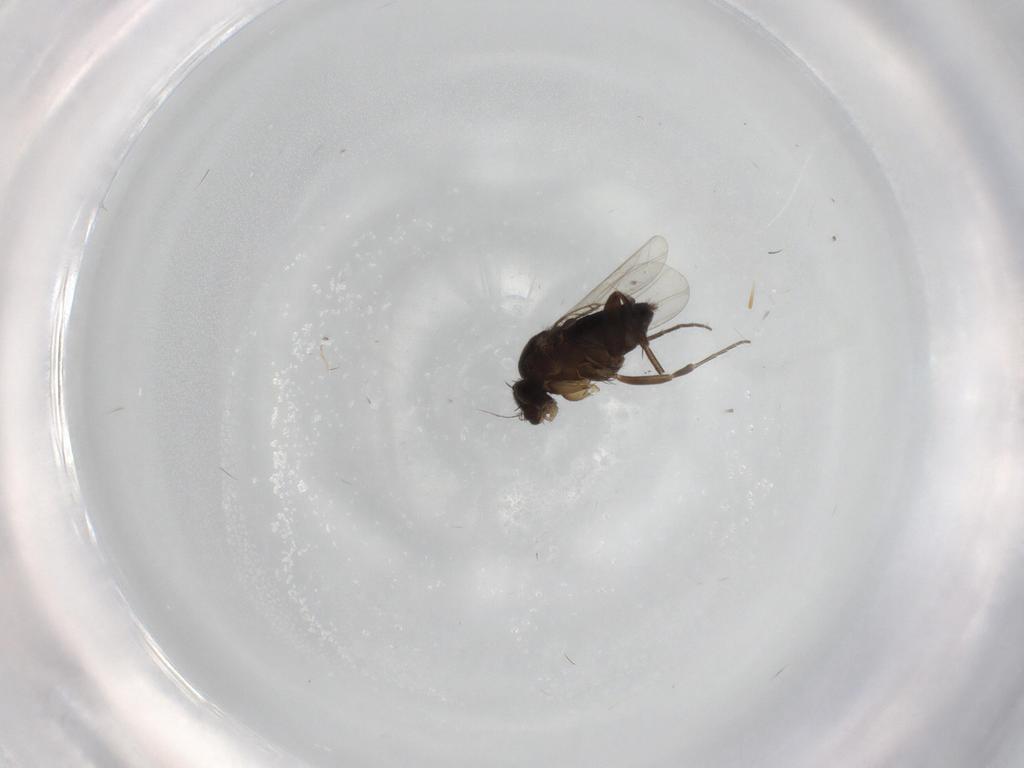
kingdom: Animalia
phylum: Arthropoda
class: Insecta
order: Diptera
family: Phoridae
